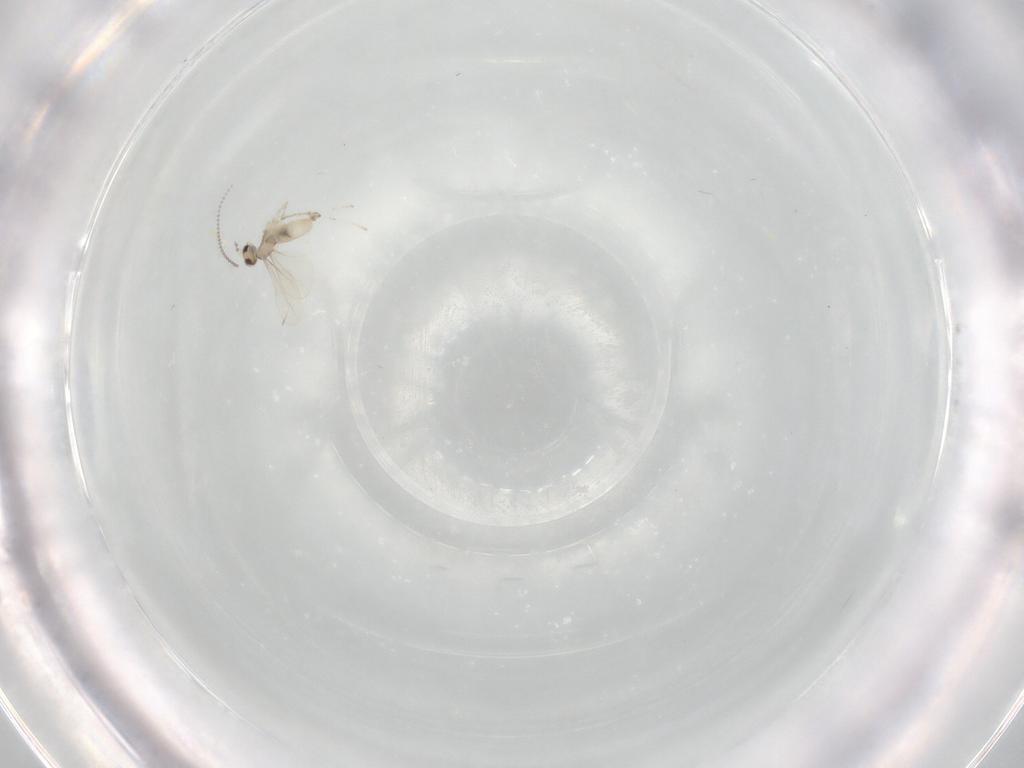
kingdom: Animalia
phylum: Arthropoda
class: Insecta
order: Diptera
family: Cecidomyiidae
